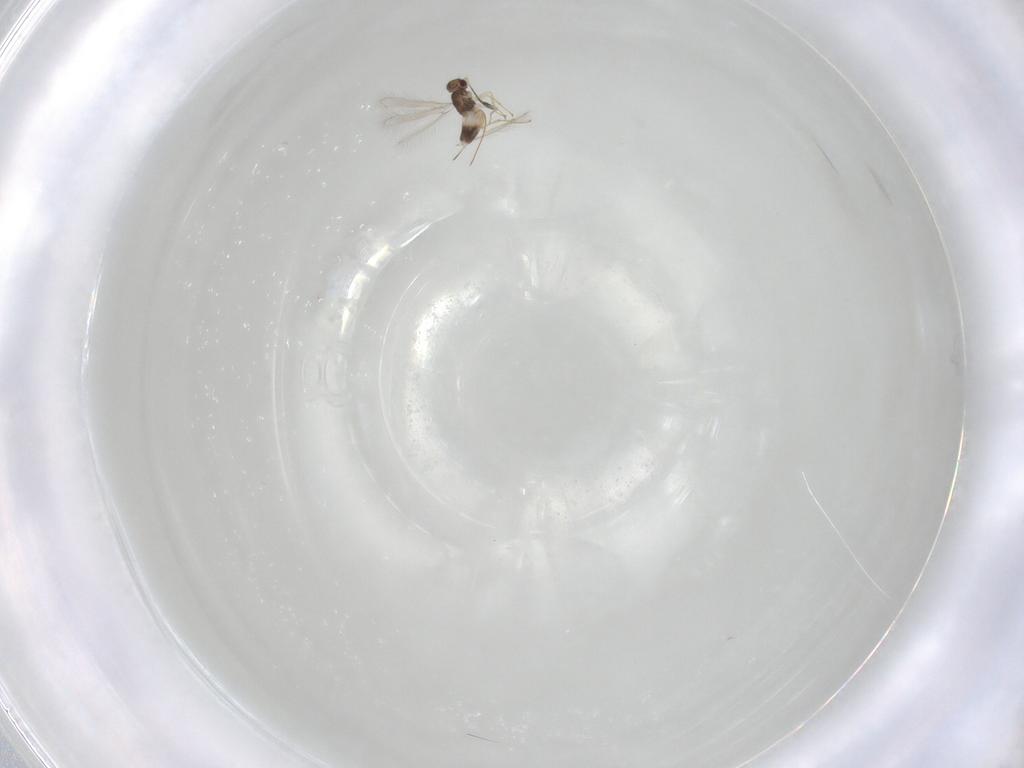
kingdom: Animalia
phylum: Arthropoda
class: Insecta
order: Hymenoptera
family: Mymaridae
